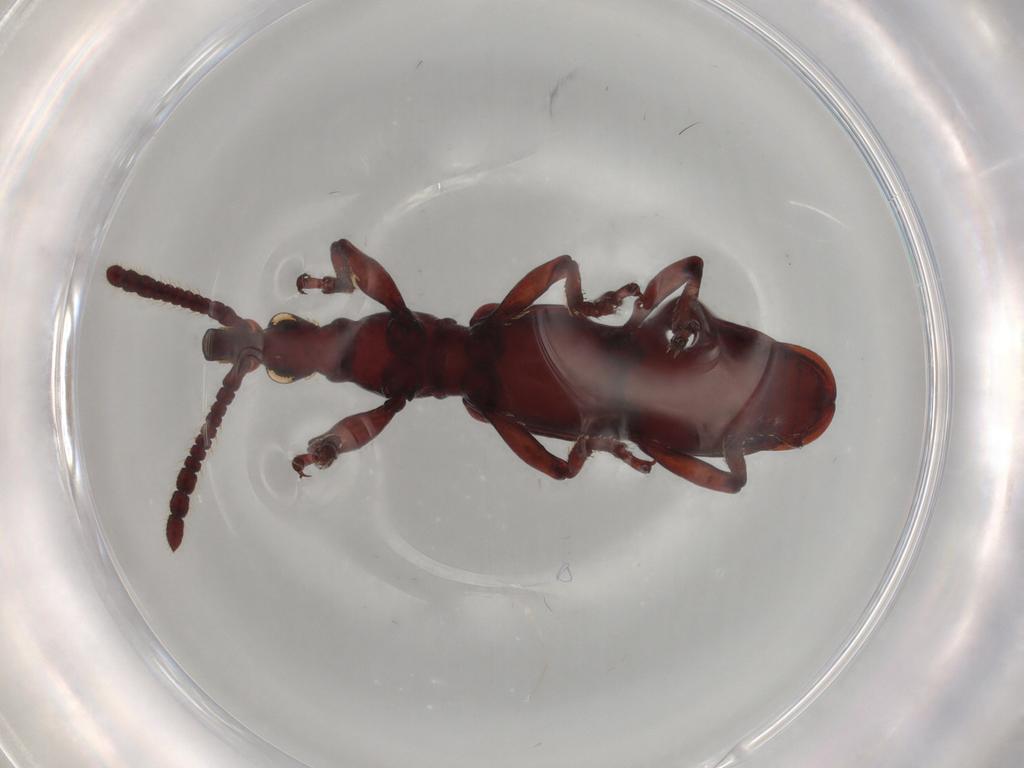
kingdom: Animalia
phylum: Arthropoda
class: Insecta
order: Coleoptera
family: Brentidae
